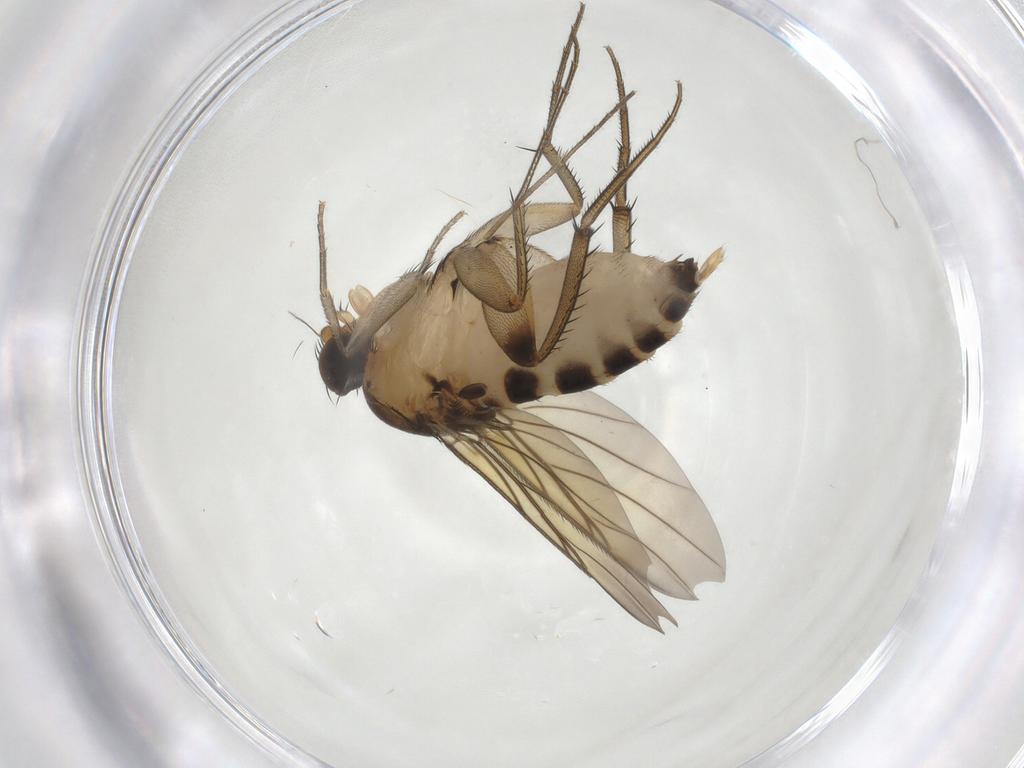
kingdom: Animalia
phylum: Arthropoda
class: Insecta
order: Diptera
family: Phoridae
